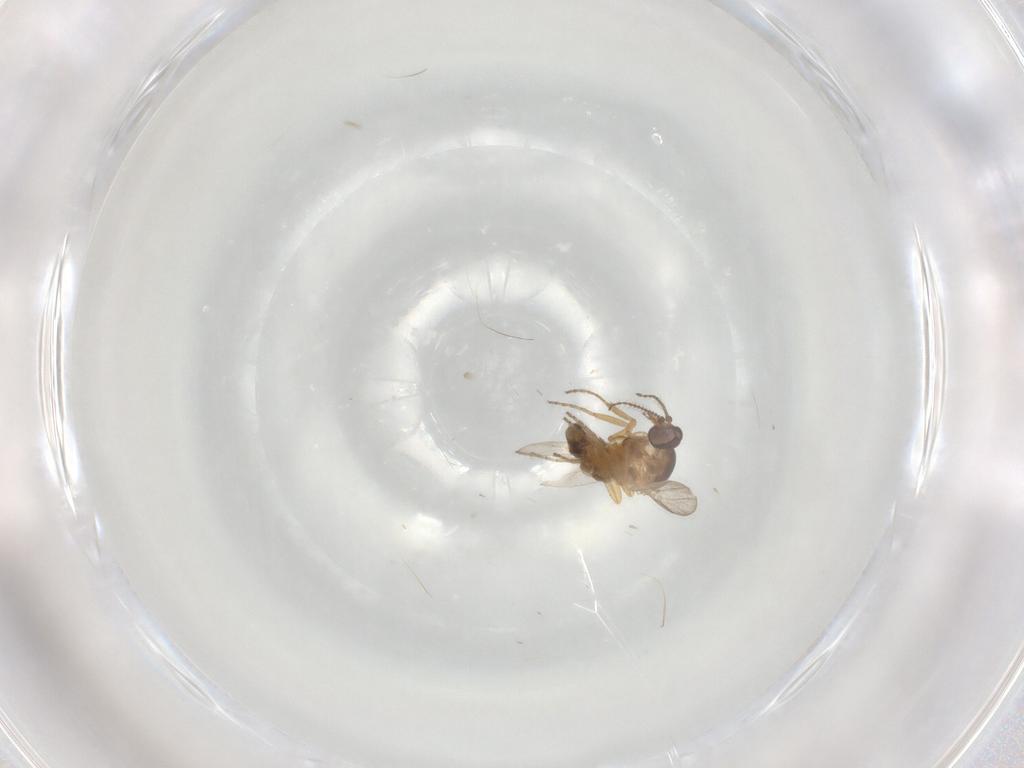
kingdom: Animalia
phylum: Arthropoda
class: Insecta
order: Diptera
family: Ceratopogonidae
